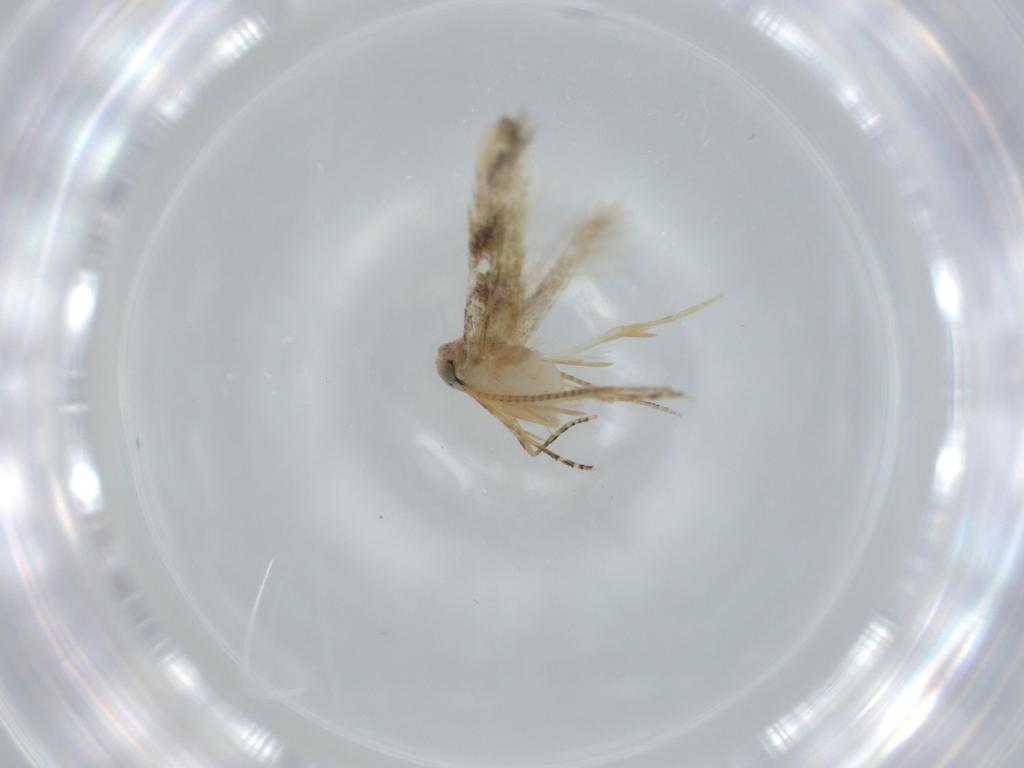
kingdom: Animalia
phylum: Arthropoda
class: Insecta
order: Lepidoptera
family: Bucculatricidae
